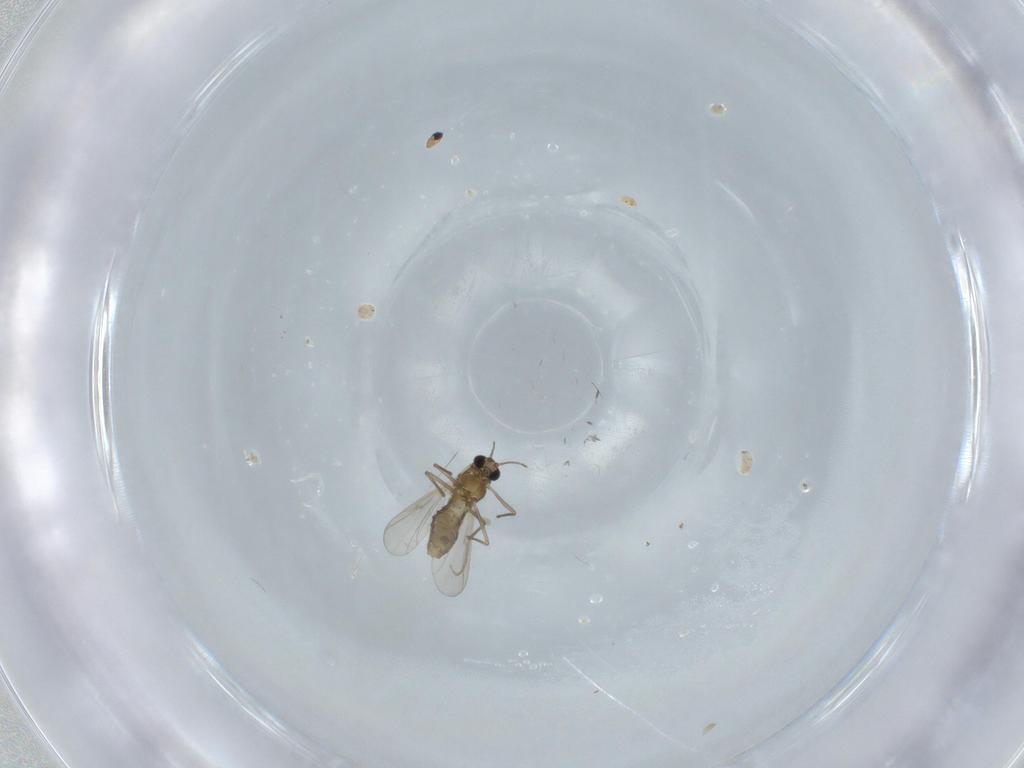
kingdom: Animalia
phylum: Arthropoda
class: Insecta
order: Diptera
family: Chironomidae
